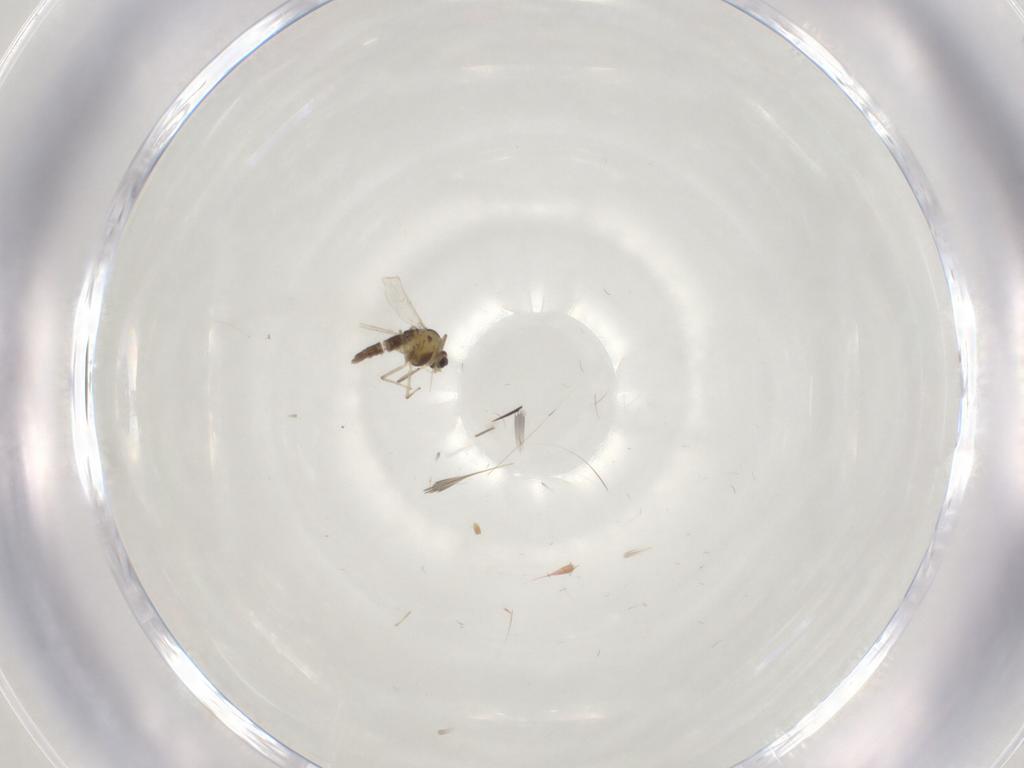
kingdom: Animalia
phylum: Arthropoda
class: Insecta
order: Diptera
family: Chironomidae
